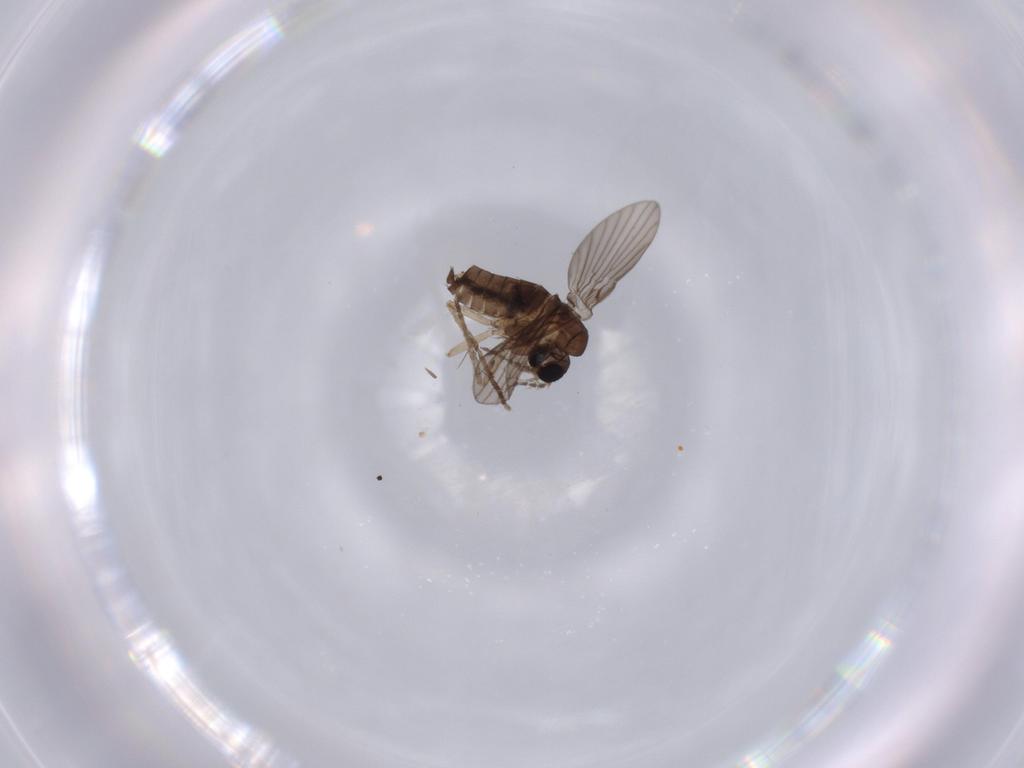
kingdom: Animalia
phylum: Arthropoda
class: Insecta
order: Diptera
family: Psychodidae
